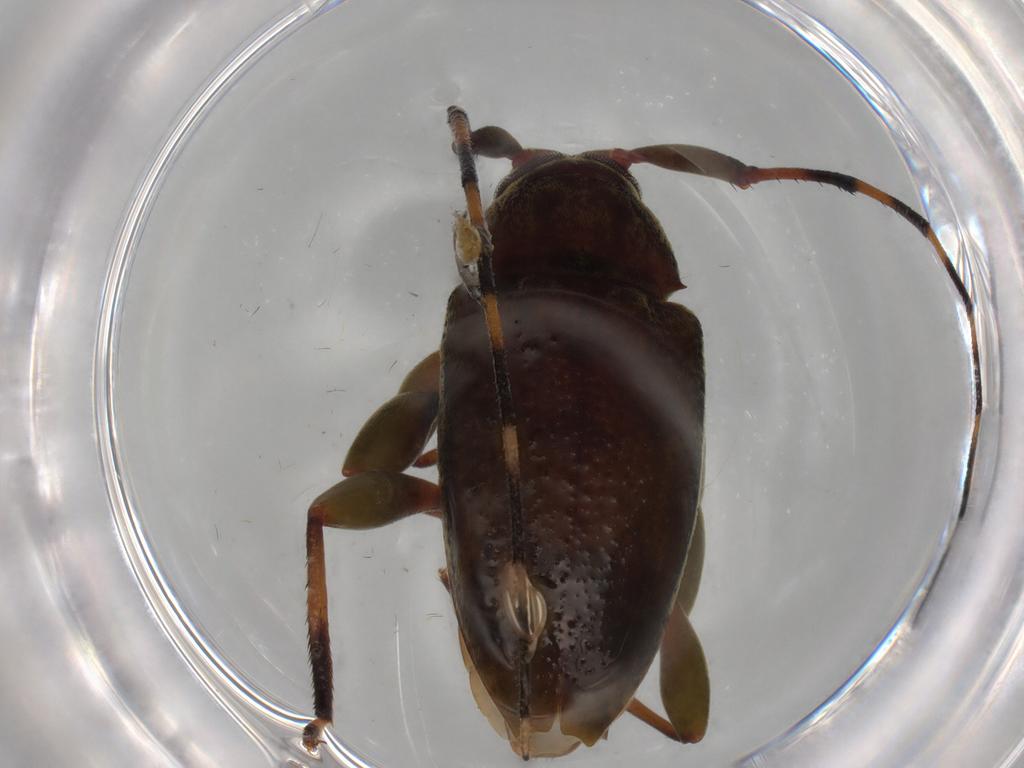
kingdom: Animalia
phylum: Arthropoda
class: Insecta
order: Coleoptera
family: Cerambycidae
